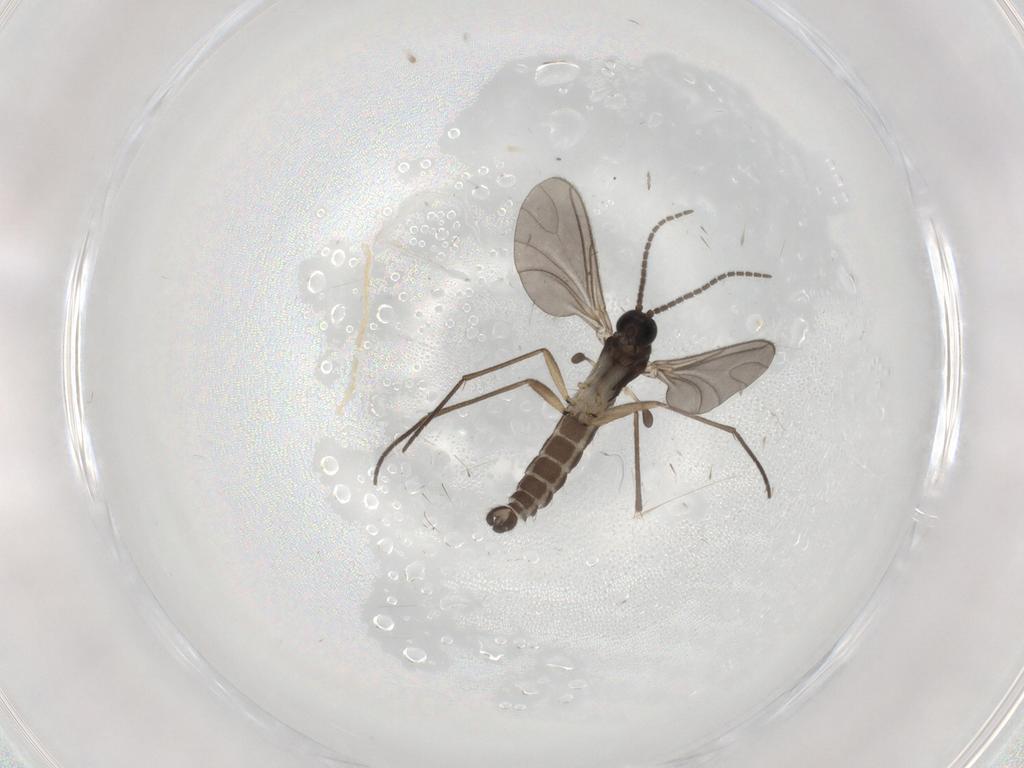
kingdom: Animalia
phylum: Arthropoda
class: Insecta
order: Diptera
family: Sciaridae
